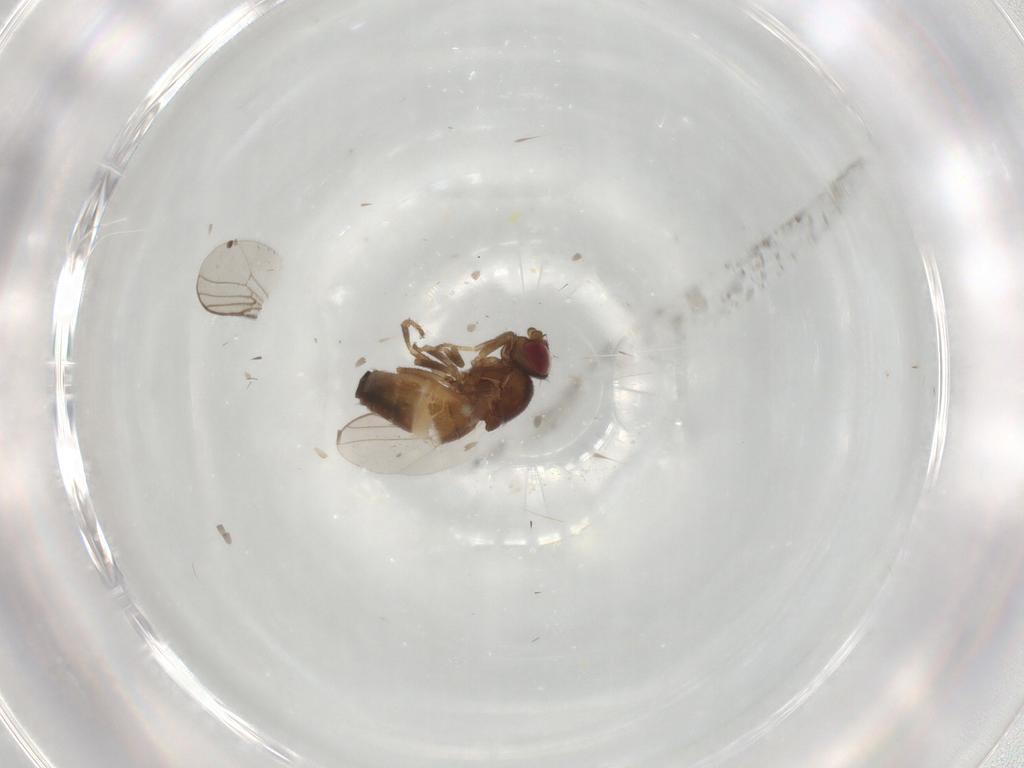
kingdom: Animalia
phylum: Arthropoda
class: Insecta
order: Diptera
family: Chloropidae
